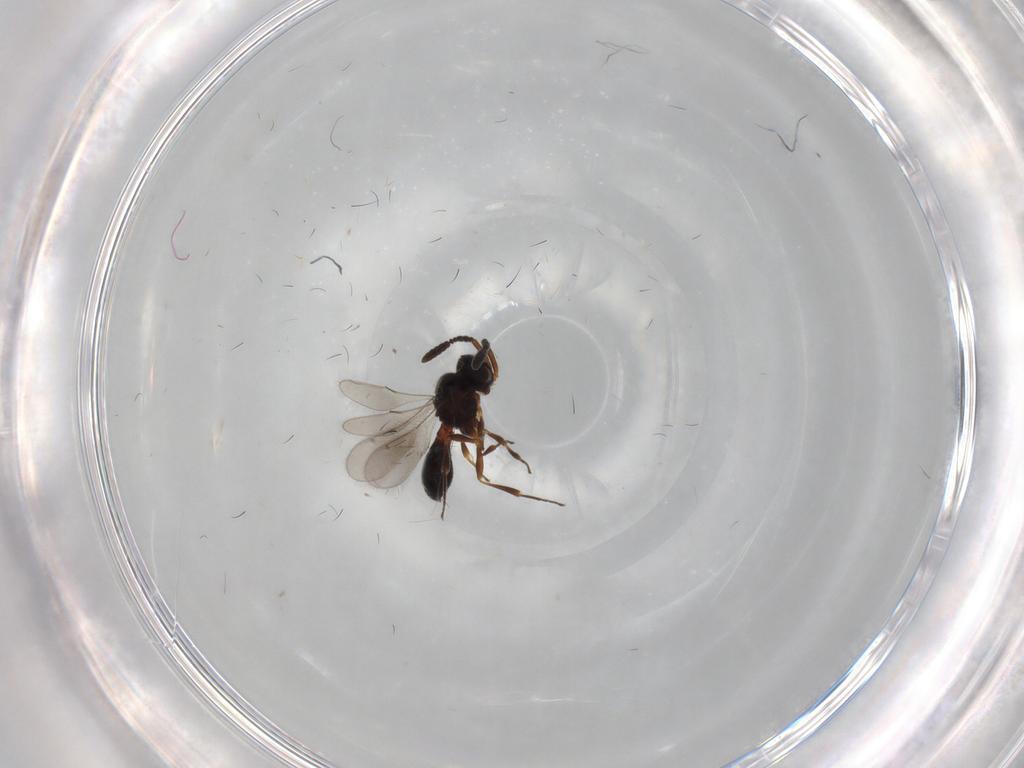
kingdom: Animalia
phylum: Arthropoda
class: Insecta
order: Hymenoptera
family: Scelionidae
